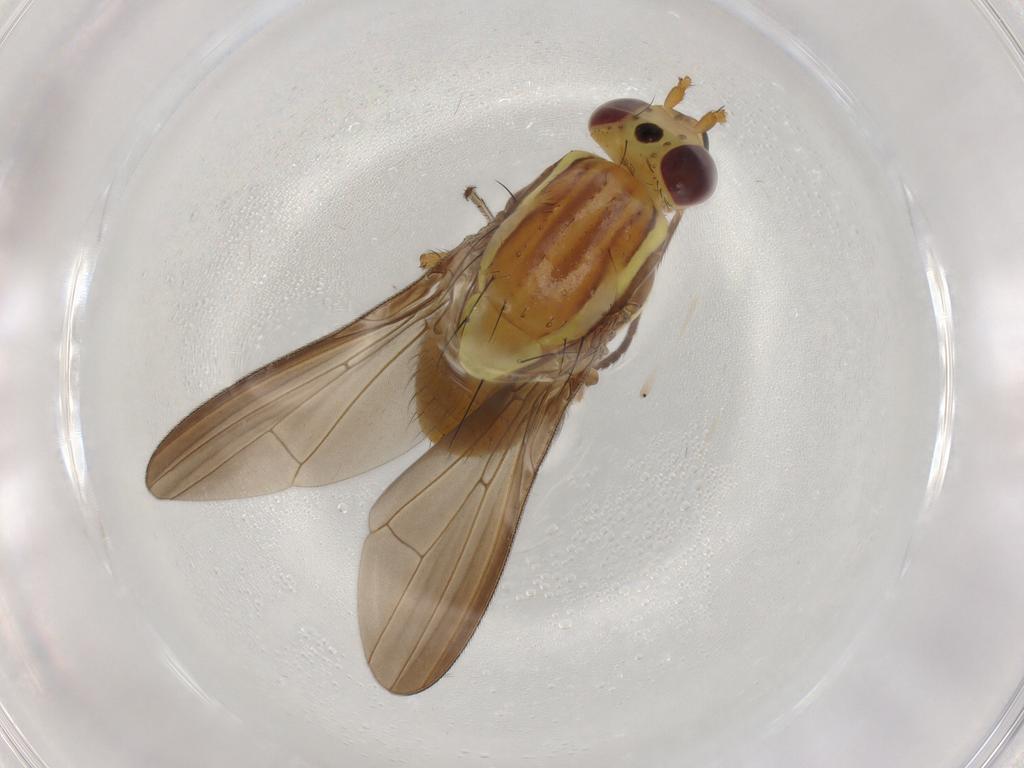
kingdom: Animalia
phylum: Arthropoda
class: Insecta
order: Diptera
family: Lauxaniidae
